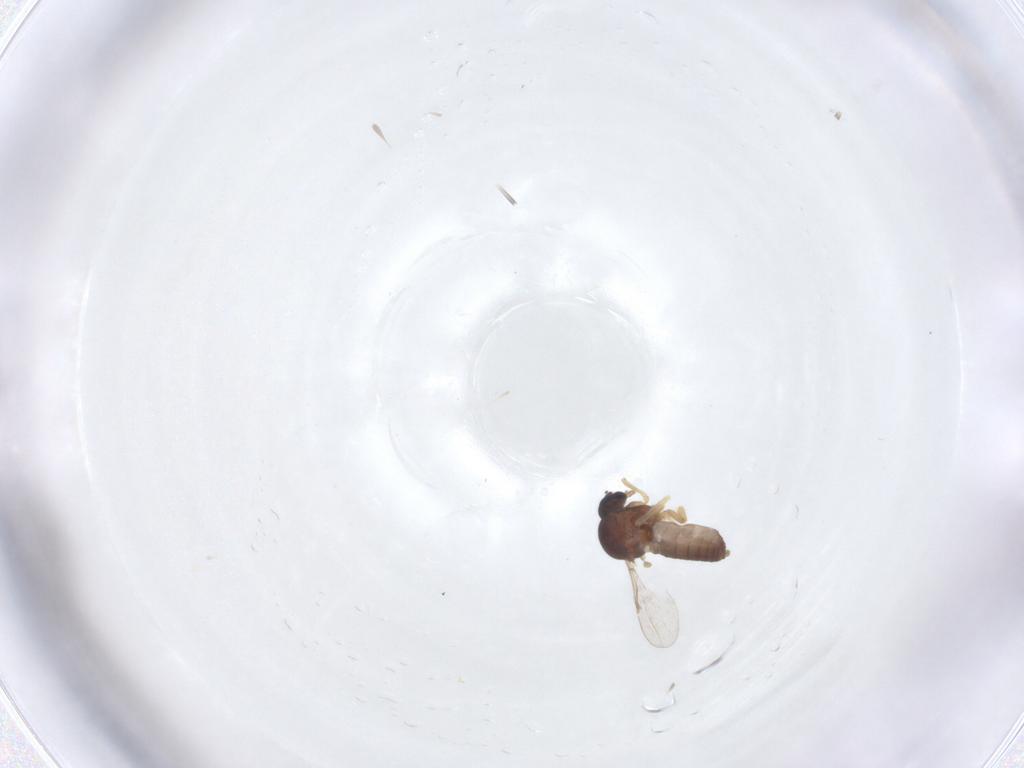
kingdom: Animalia
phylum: Arthropoda
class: Insecta
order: Diptera
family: Ceratopogonidae
